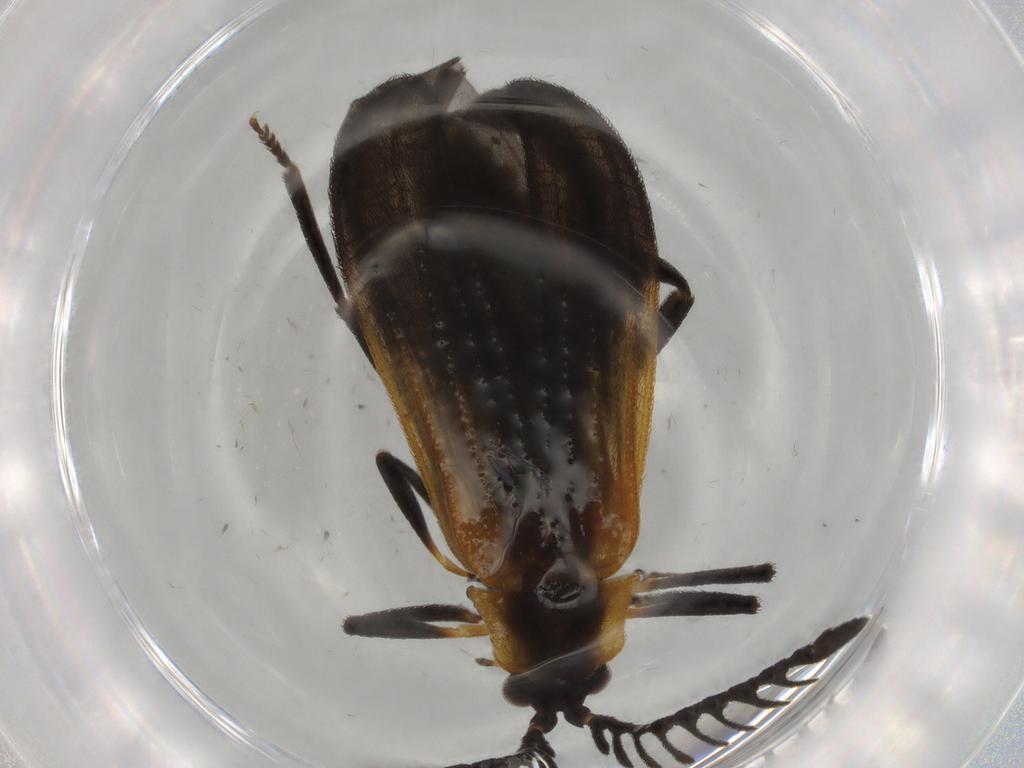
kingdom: Animalia
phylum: Arthropoda
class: Insecta
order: Coleoptera
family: Lycidae
